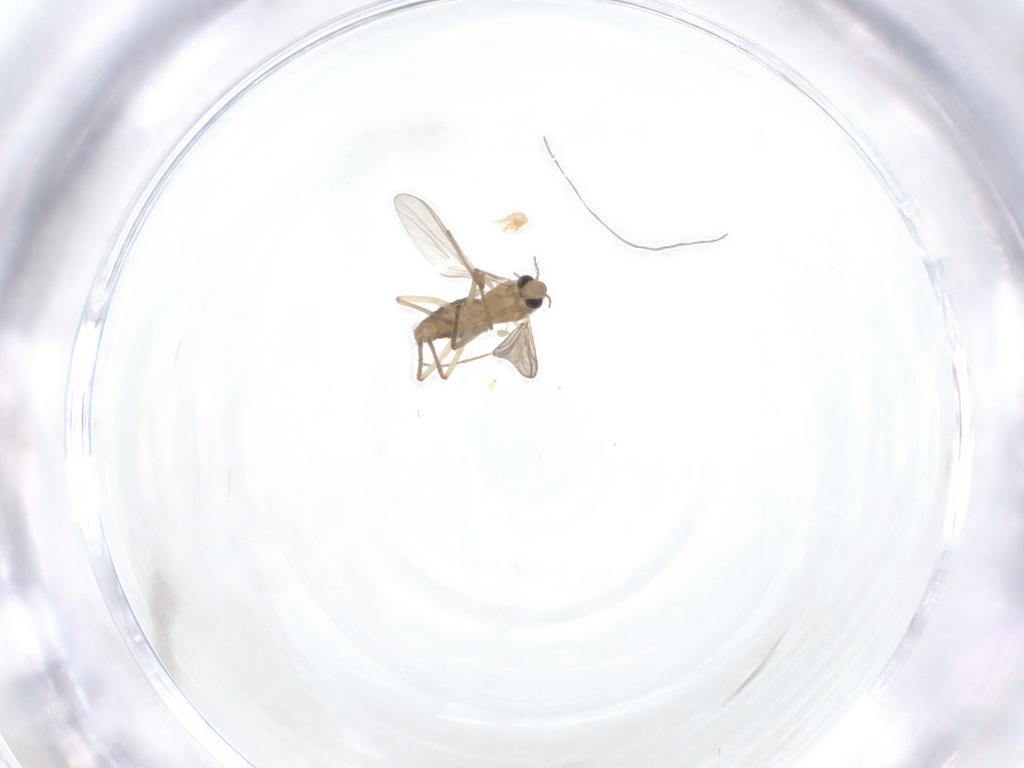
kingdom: Animalia
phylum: Arthropoda
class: Insecta
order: Diptera
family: Chironomidae
